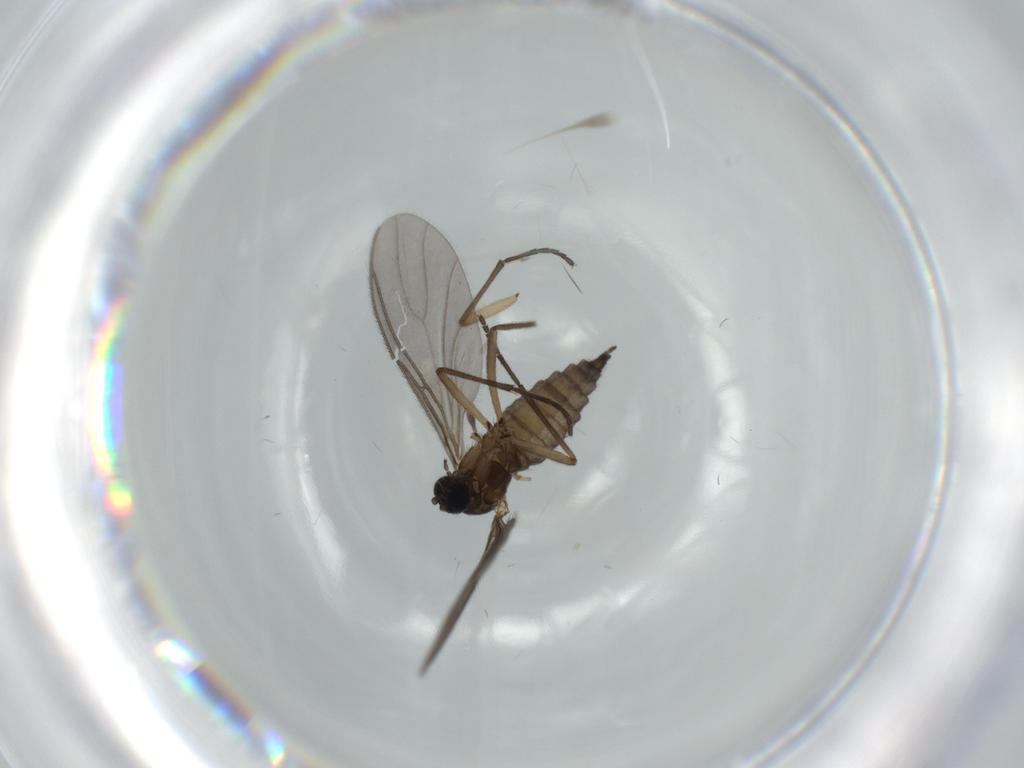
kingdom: Animalia
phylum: Arthropoda
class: Insecta
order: Diptera
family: Sciaridae
